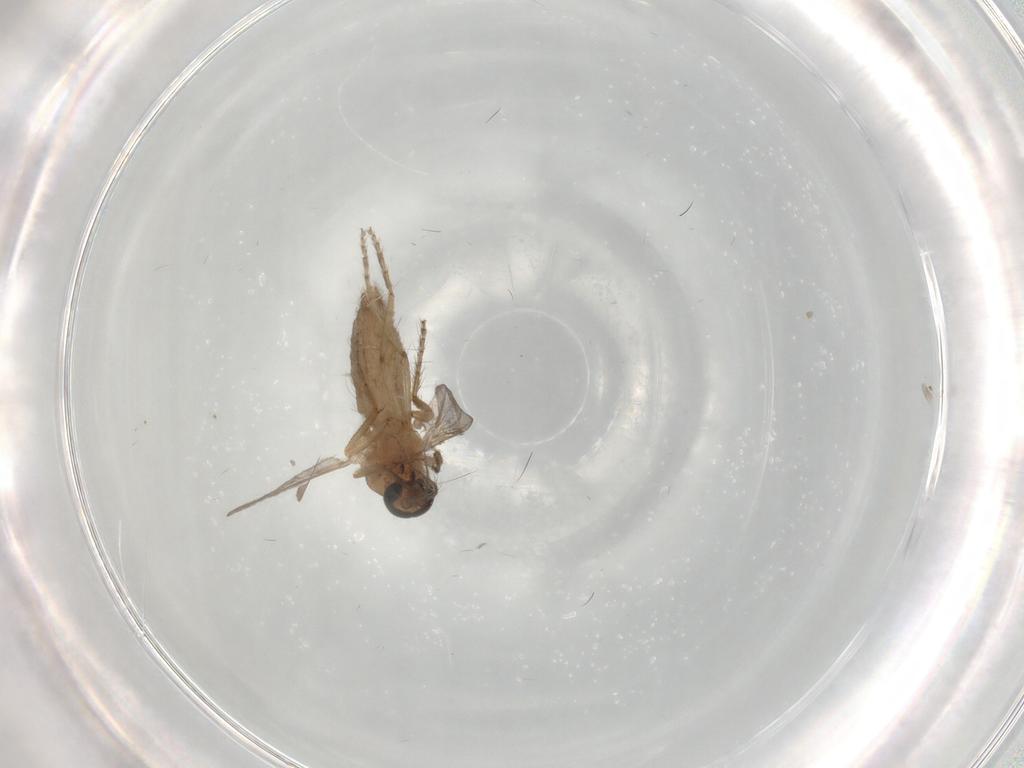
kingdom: Animalia
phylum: Arthropoda
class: Insecta
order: Diptera
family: Ceratopogonidae
